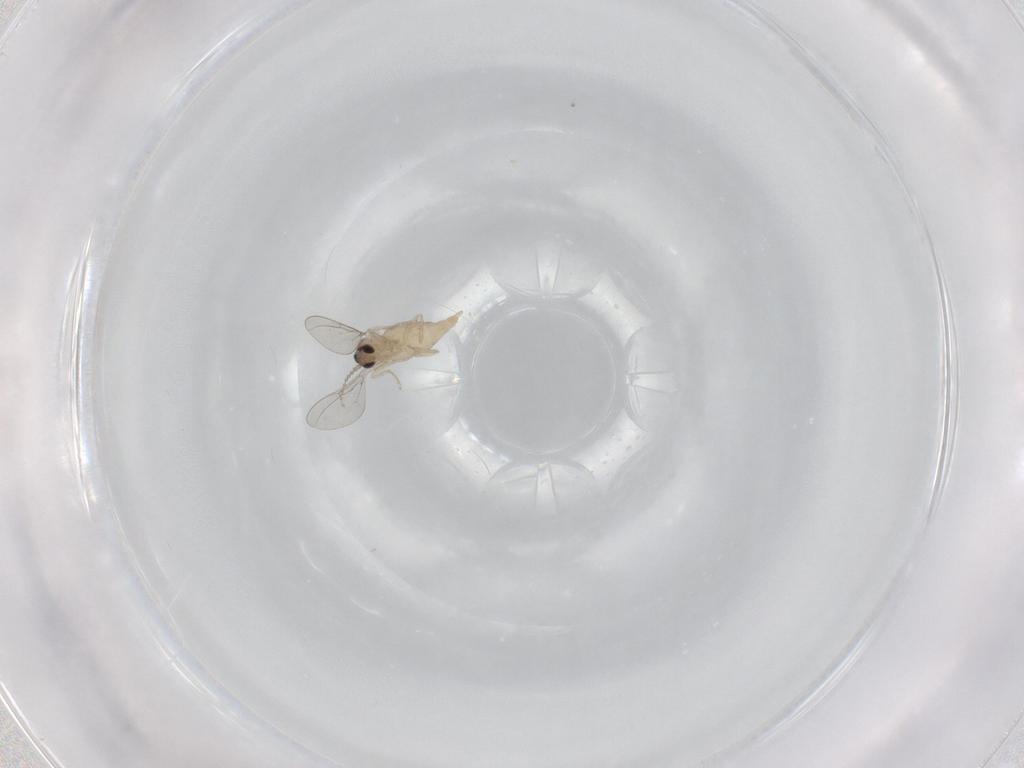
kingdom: Animalia
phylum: Arthropoda
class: Insecta
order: Diptera
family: Cecidomyiidae
